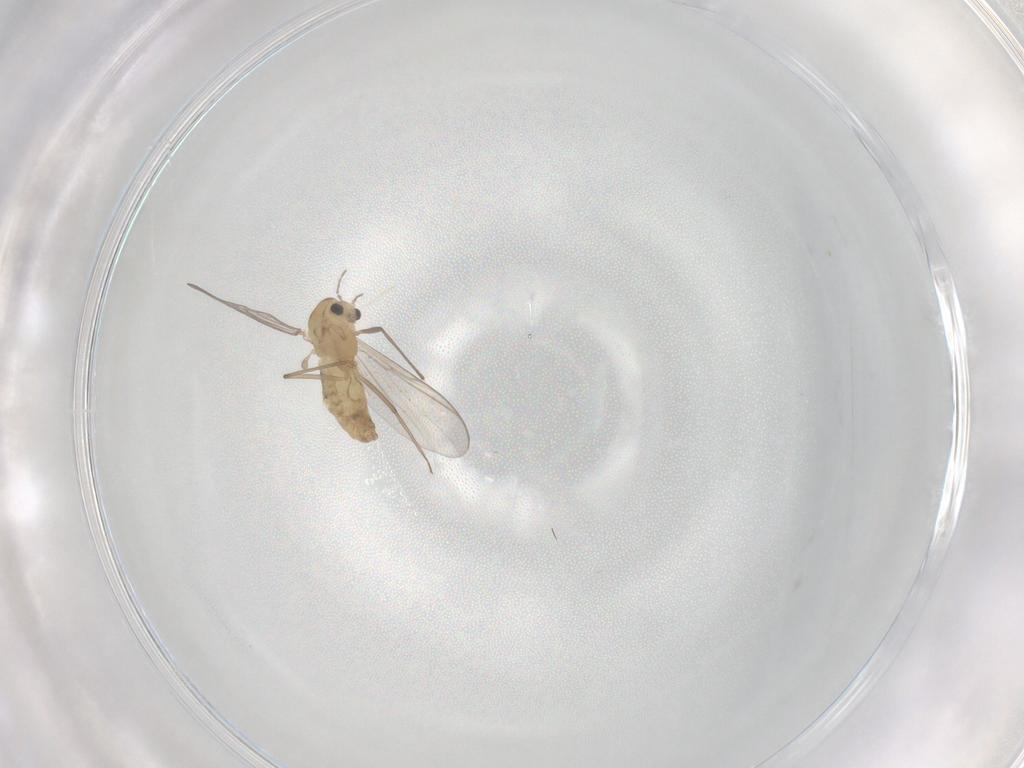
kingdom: Animalia
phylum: Arthropoda
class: Insecta
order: Diptera
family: Chironomidae
